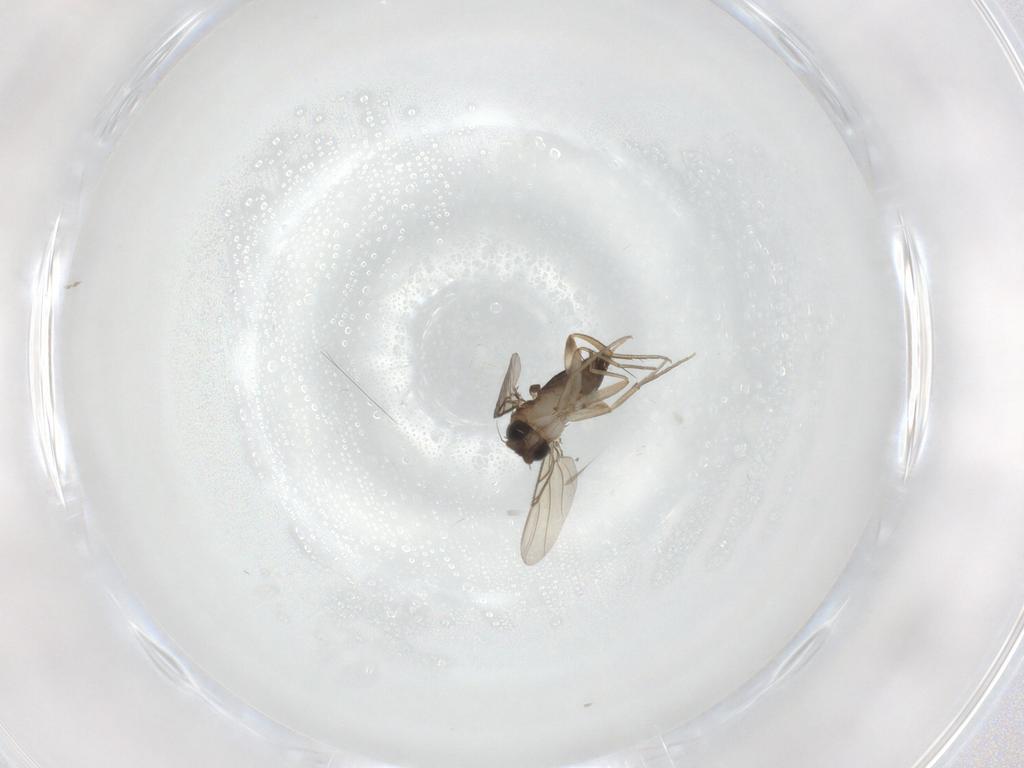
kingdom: Animalia
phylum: Arthropoda
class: Insecta
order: Diptera
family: Phoridae
